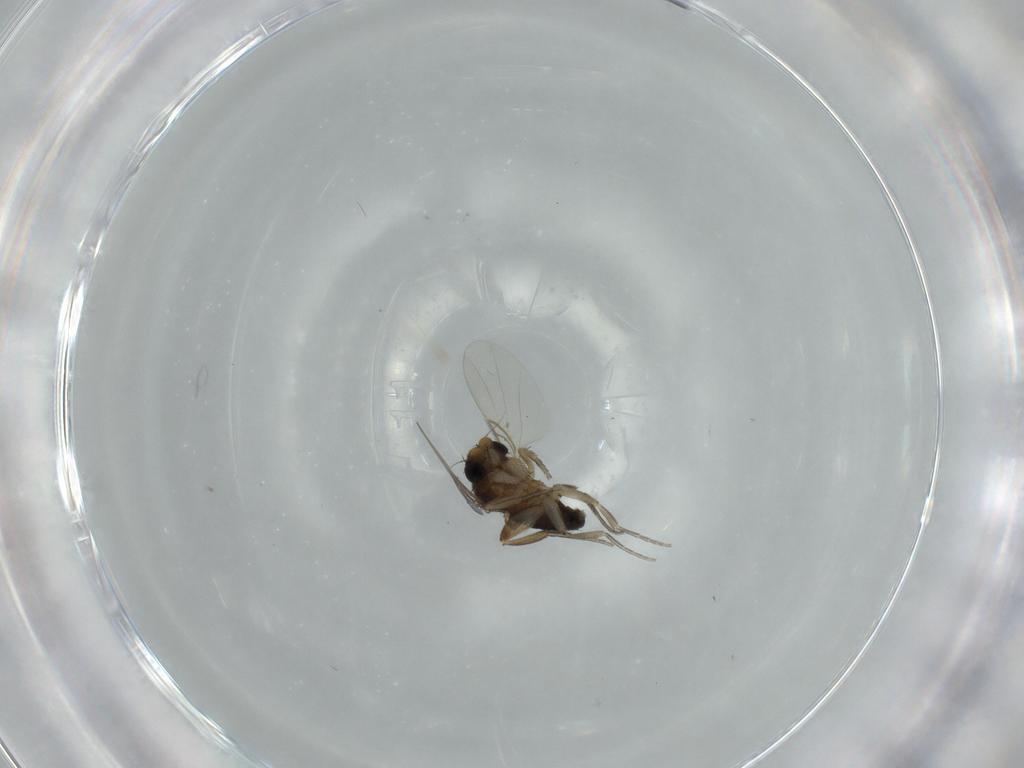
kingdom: Animalia
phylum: Arthropoda
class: Insecta
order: Diptera
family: Phoridae
